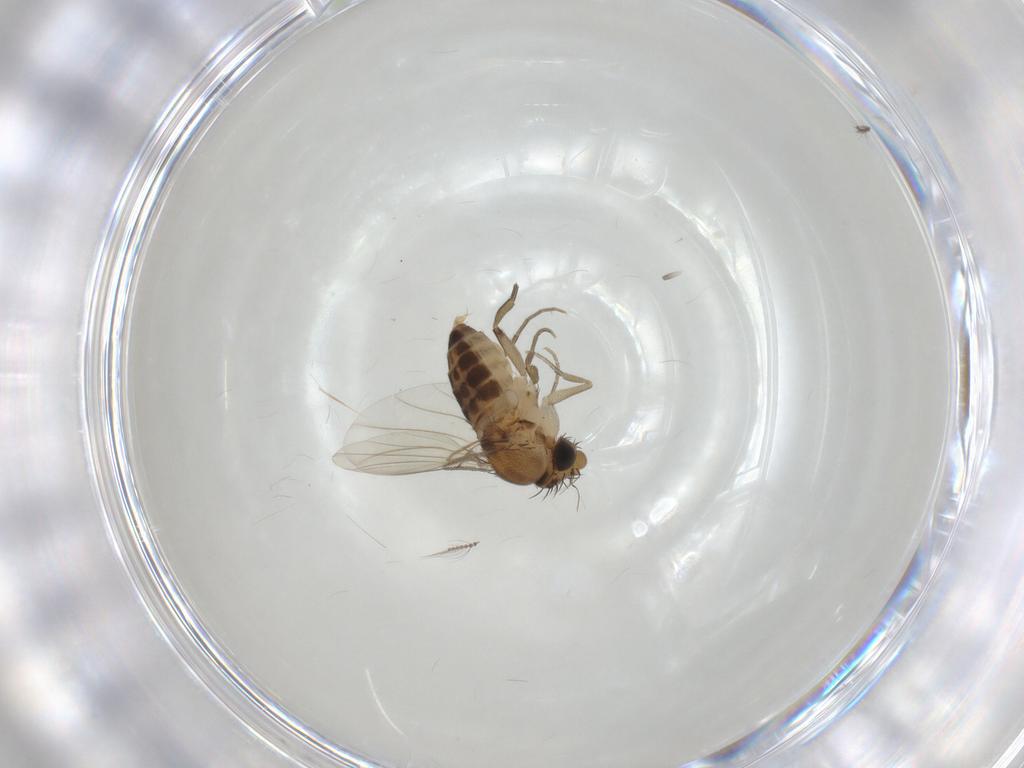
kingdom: Animalia
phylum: Arthropoda
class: Insecta
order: Diptera
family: Phoridae
